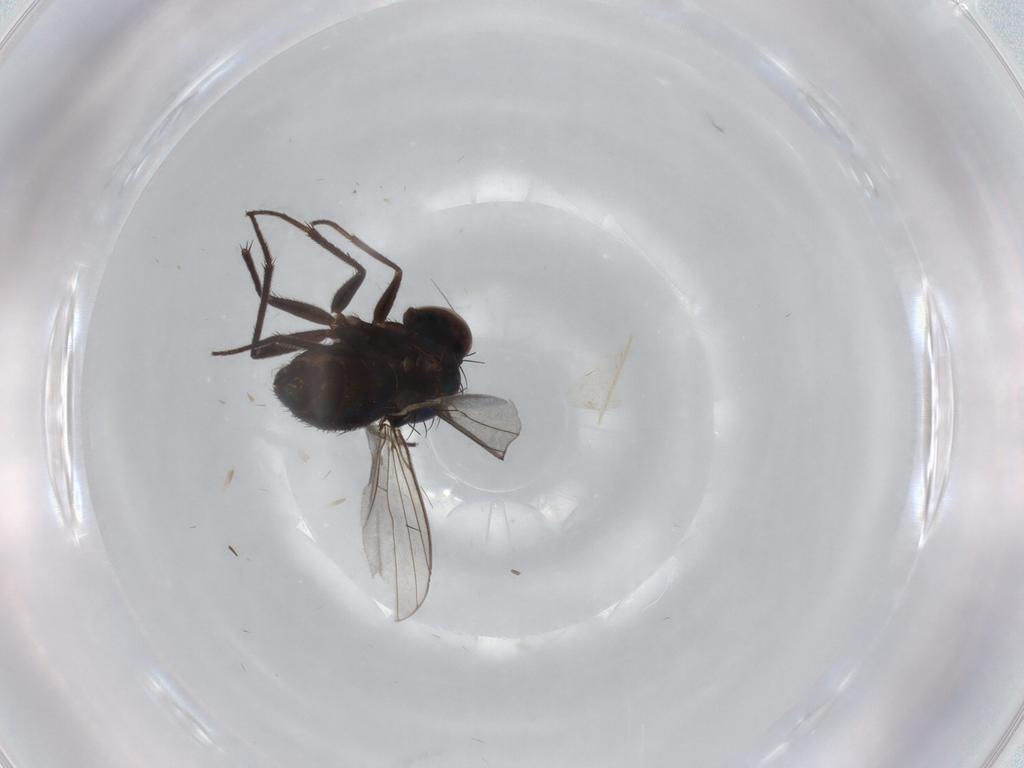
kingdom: Animalia
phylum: Arthropoda
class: Insecta
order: Diptera
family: Dolichopodidae
